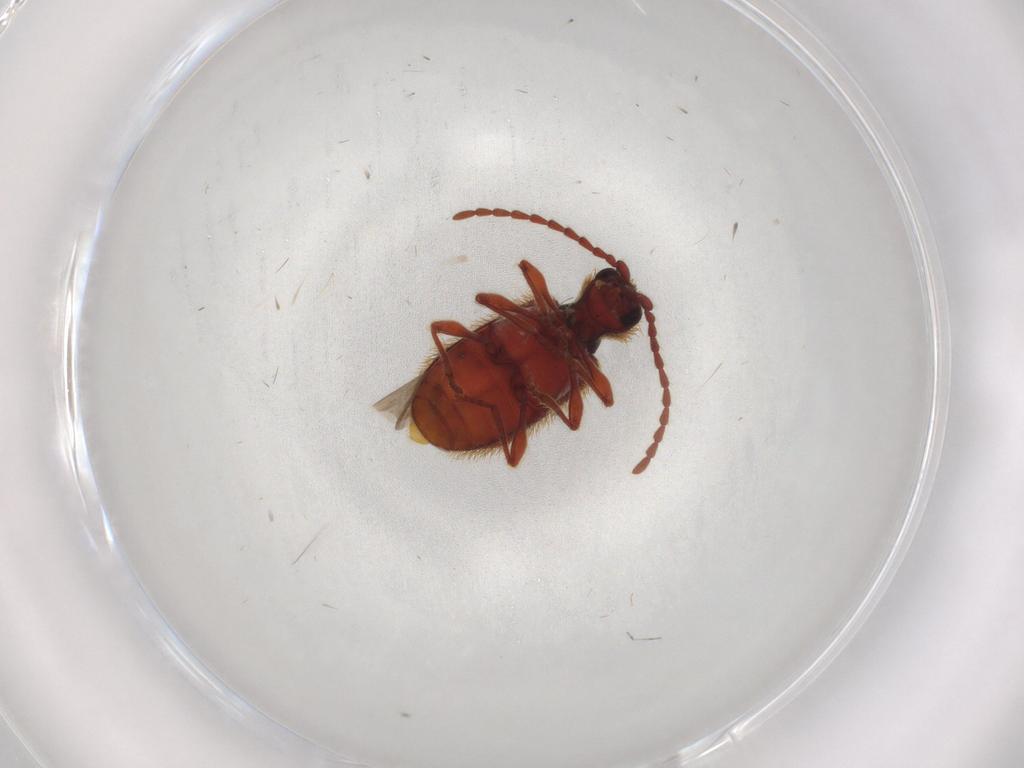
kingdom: Animalia
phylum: Arthropoda
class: Insecta
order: Coleoptera
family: Ptinidae
